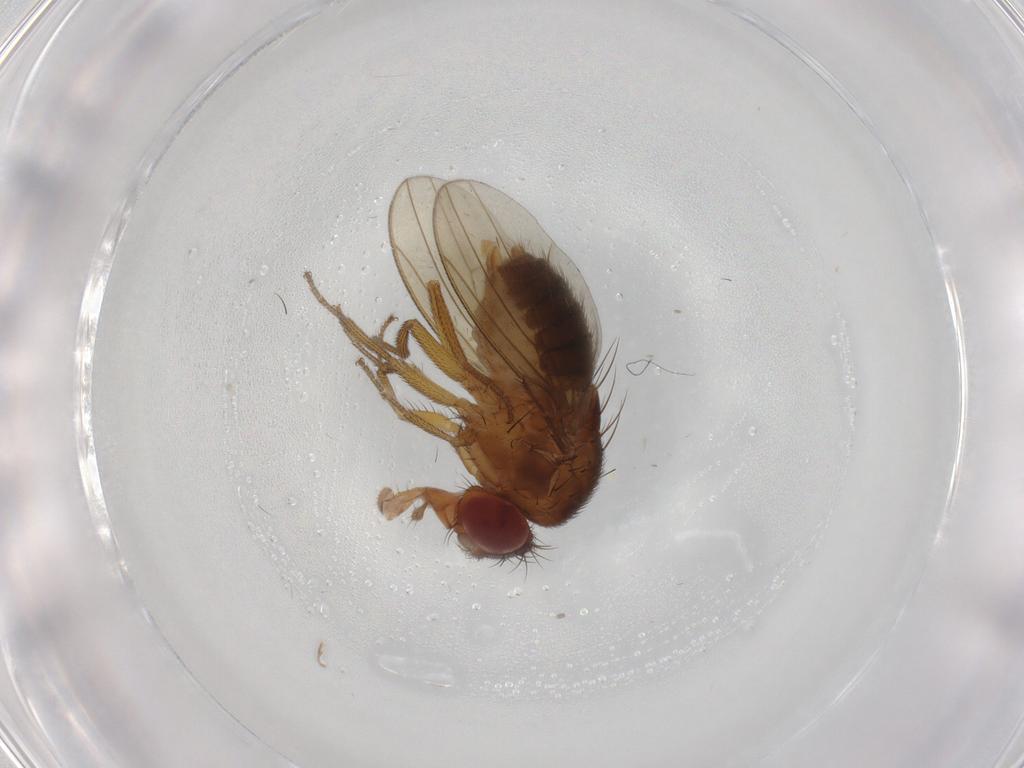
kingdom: Animalia
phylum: Arthropoda
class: Insecta
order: Diptera
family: Drosophilidae
